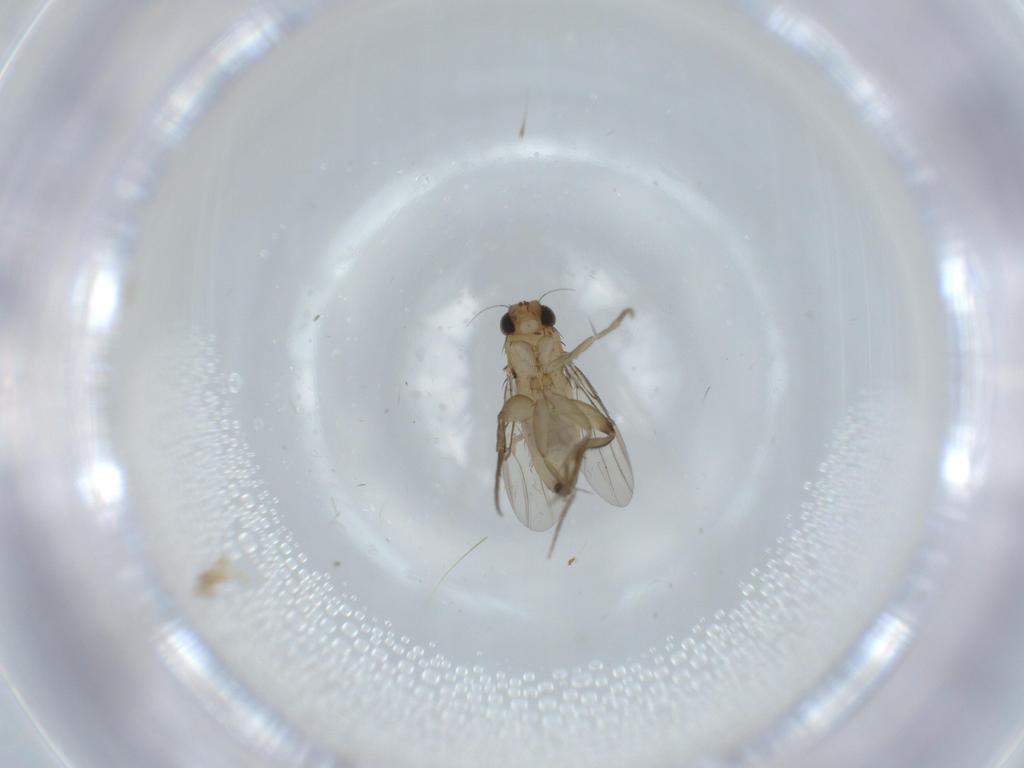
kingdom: Animalia
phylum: Arthropoda
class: Insecta
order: Diptera
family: Phoridae
